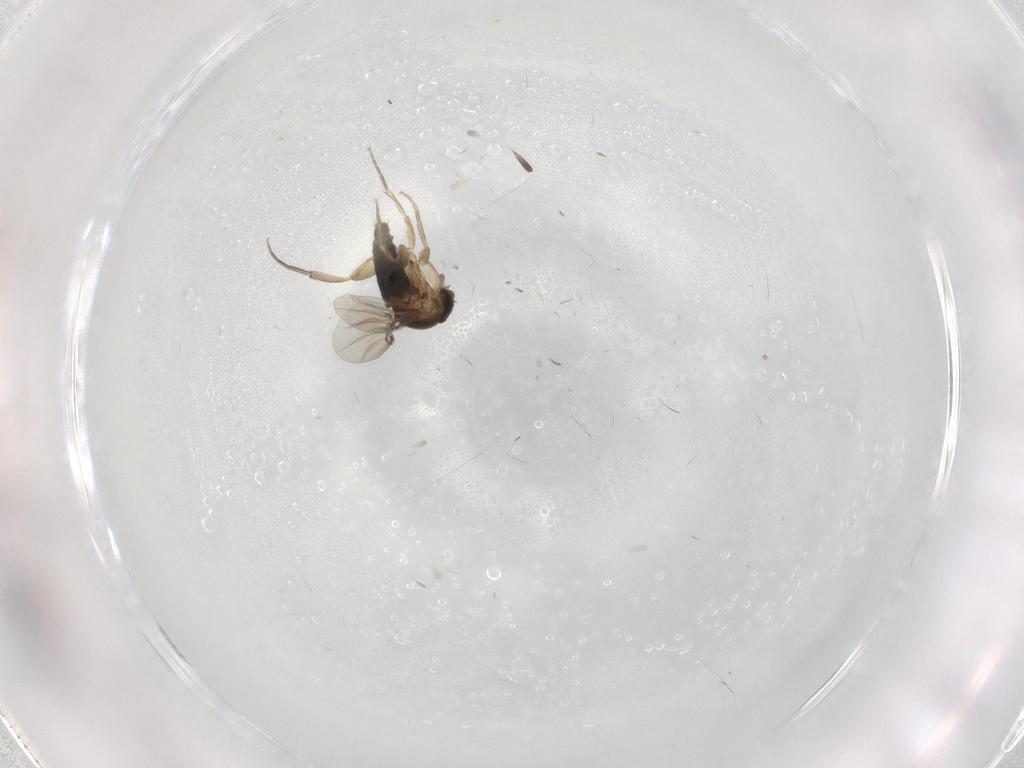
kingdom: Animalia
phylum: Arthropoda
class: Insecta
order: Diptera
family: Phoridae
